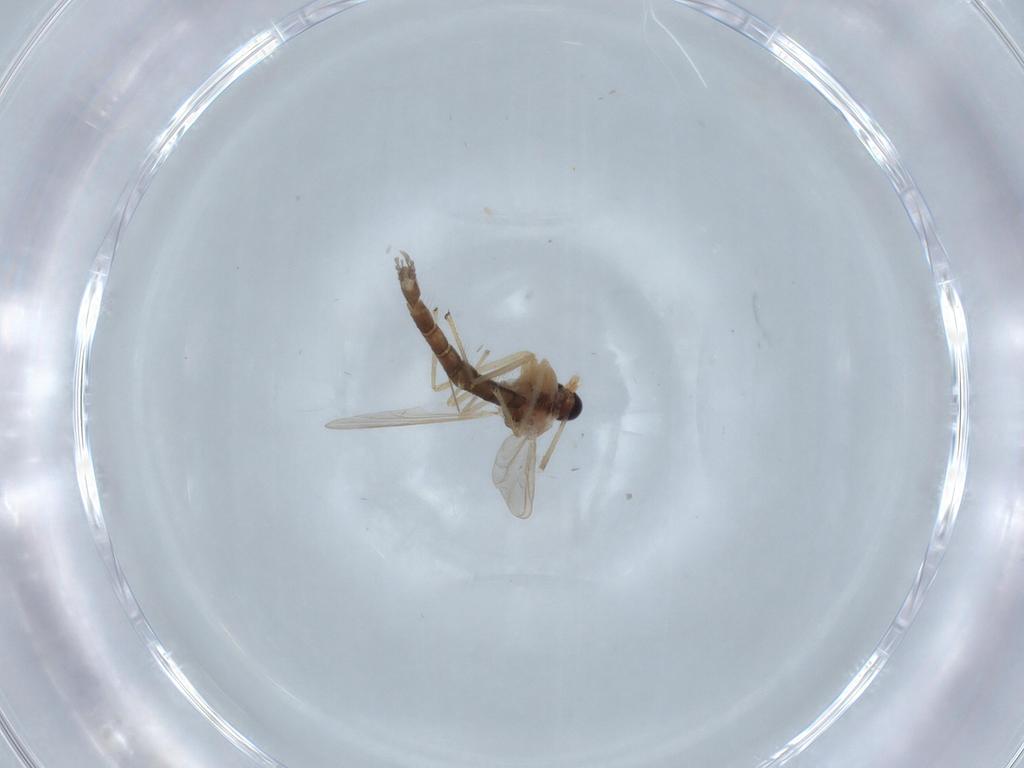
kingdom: Animalia
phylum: Arthropoda
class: Insecta
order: Diptera
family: Chironomidae
